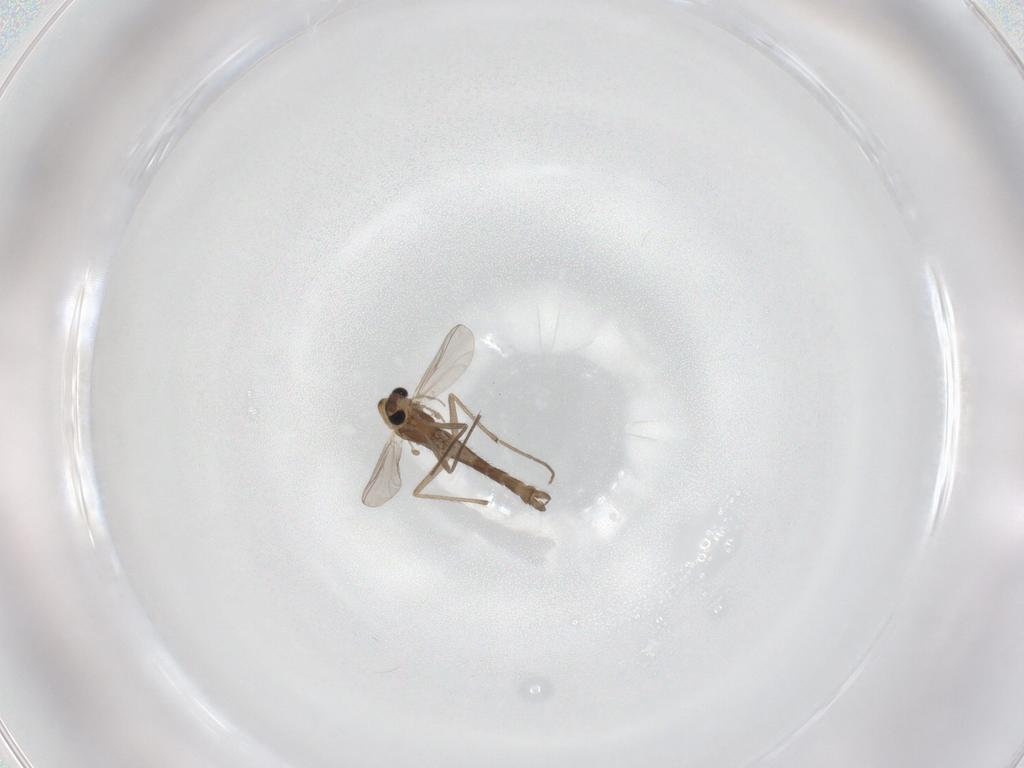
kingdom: Animalia
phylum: Arthropoda
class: Insecta
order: Diptera
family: Chironomidae
